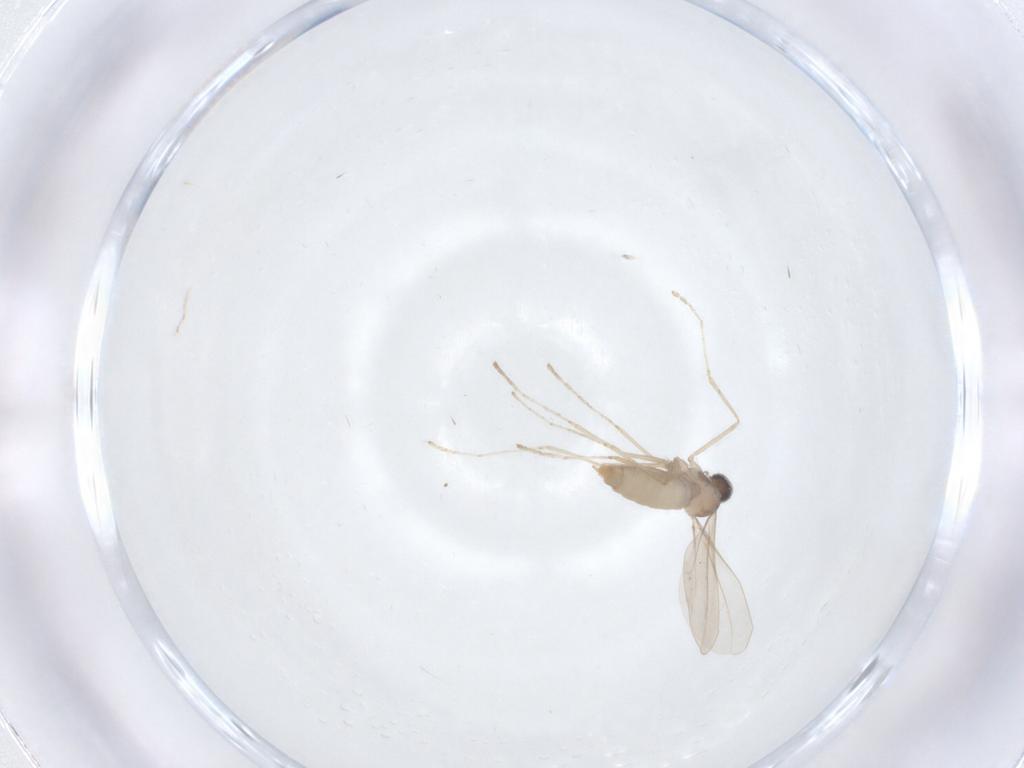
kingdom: Animalia
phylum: Arthropoda
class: Insecta
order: Diptera
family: Cecidomyiidae
